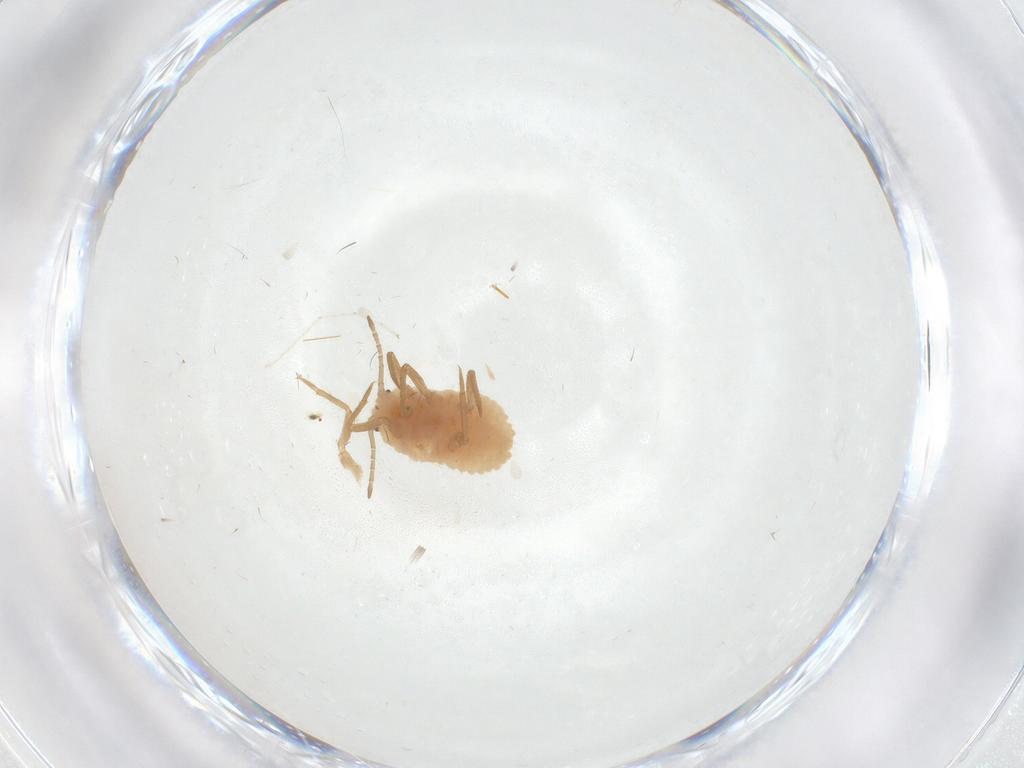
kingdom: Animalia
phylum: Arthropoda
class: Insecta
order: Hemiptera
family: Putoidae
